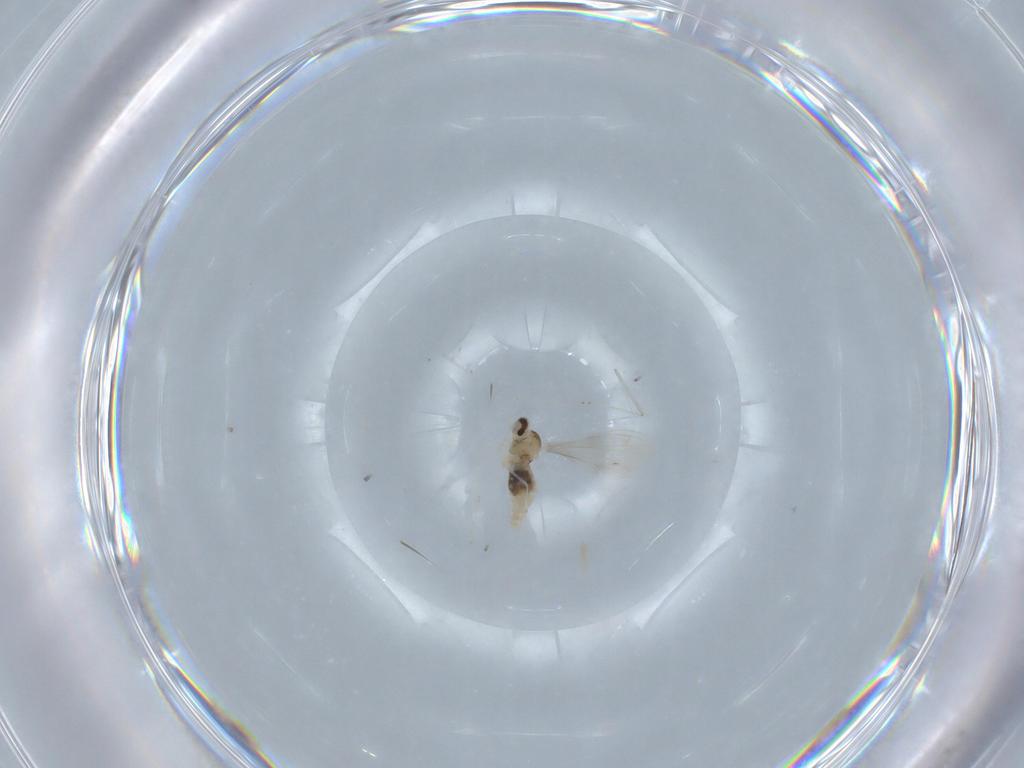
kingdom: Animalia
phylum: Arthropoda
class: Insecta
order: Diptera
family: Cecidomyiidae
